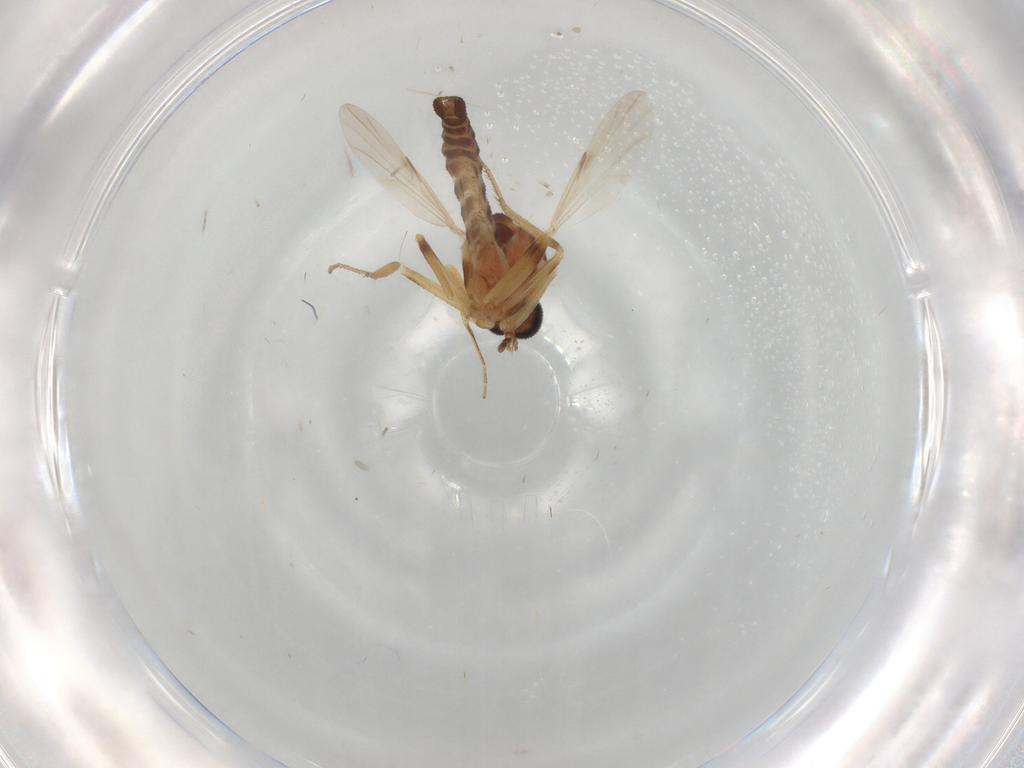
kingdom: Animalia
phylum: Arthropoda
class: Insecta
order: Diptera
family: Ceratopogonidae
